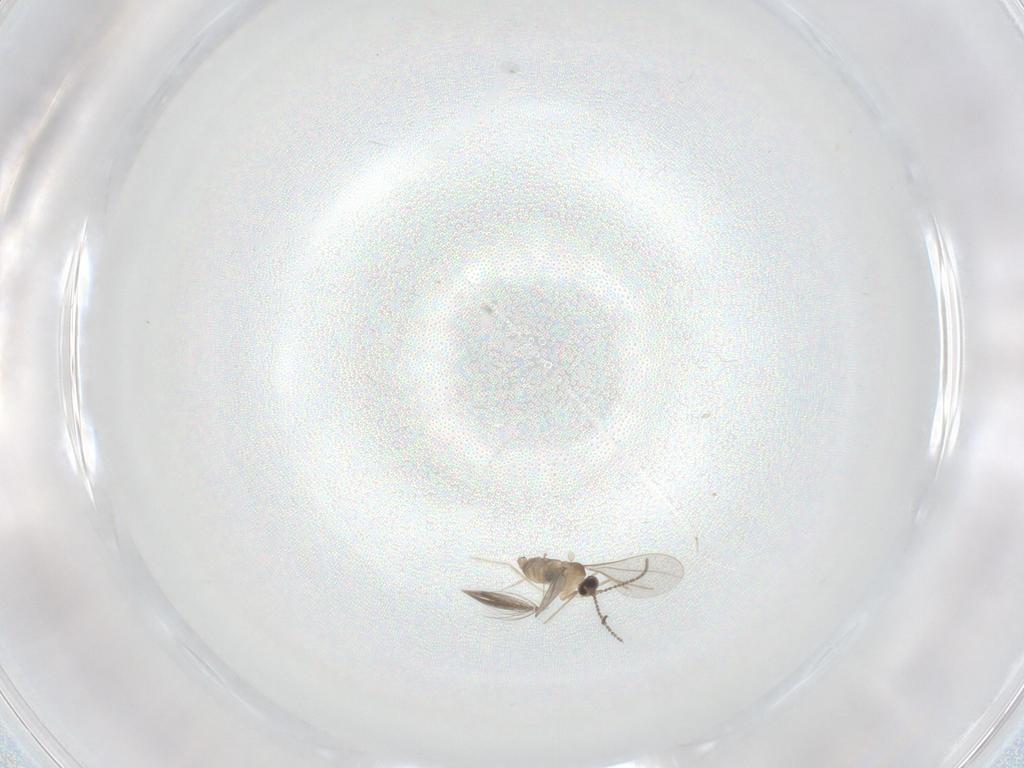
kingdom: Animalia
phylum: Arthropoda
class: Insecta
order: Diptera
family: Cecidomyiidae
